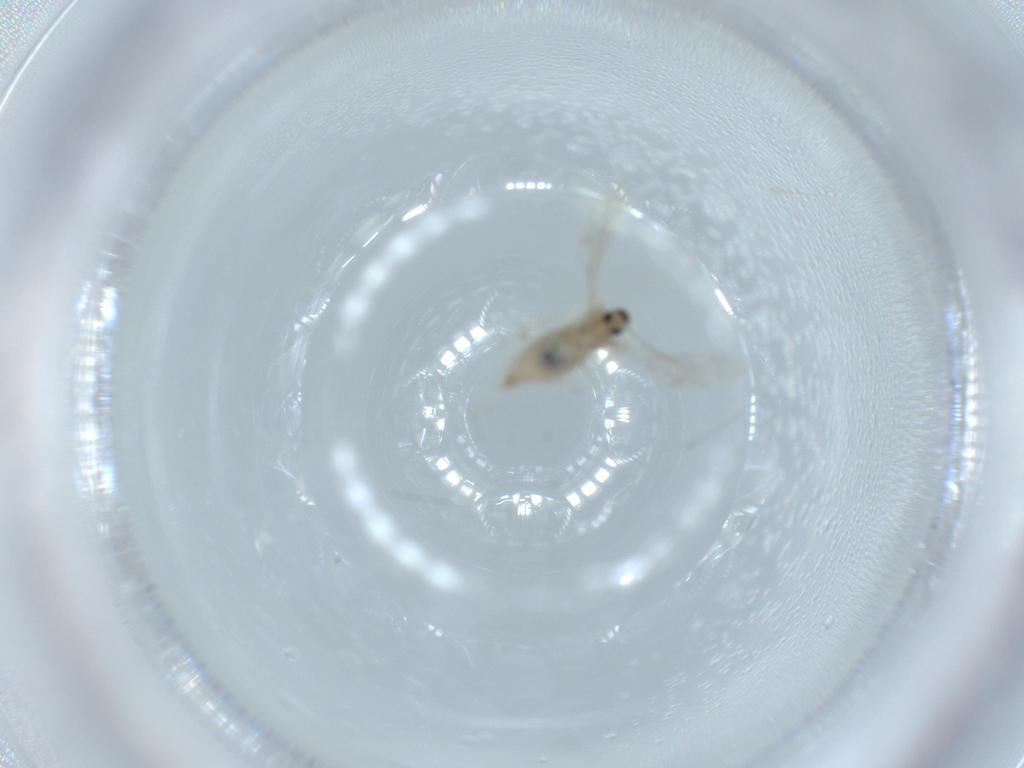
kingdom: Animalia
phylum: Arthropoda
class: Insecta
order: Diptera
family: Cecidomyiidae
